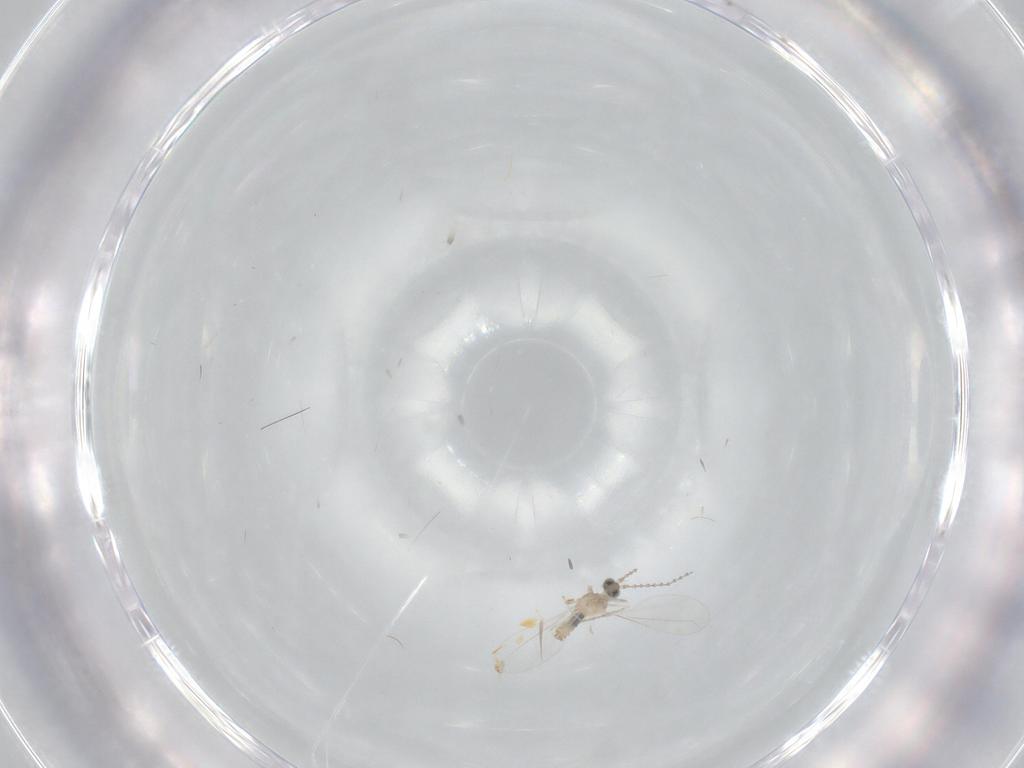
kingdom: Animalia
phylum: Arthropoda
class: Insecta
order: Diptera
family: Cecidomyiidae
